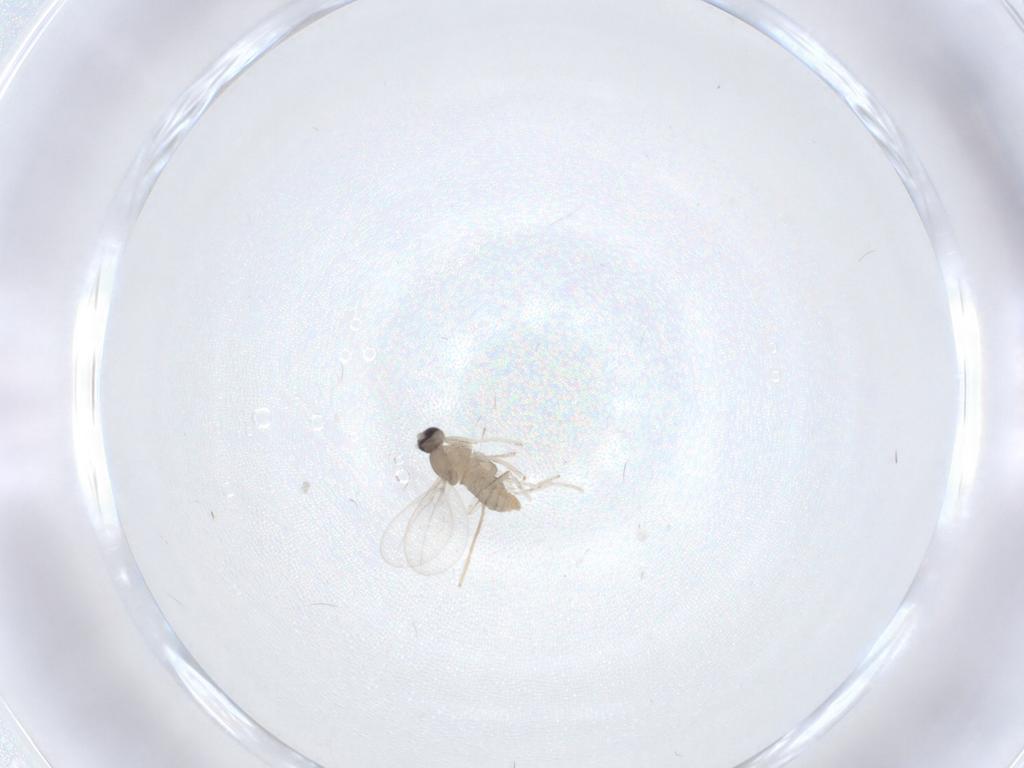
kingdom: Animalia
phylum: Arthropoda
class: Insecta
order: Diptera
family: Cecidomyiidae
